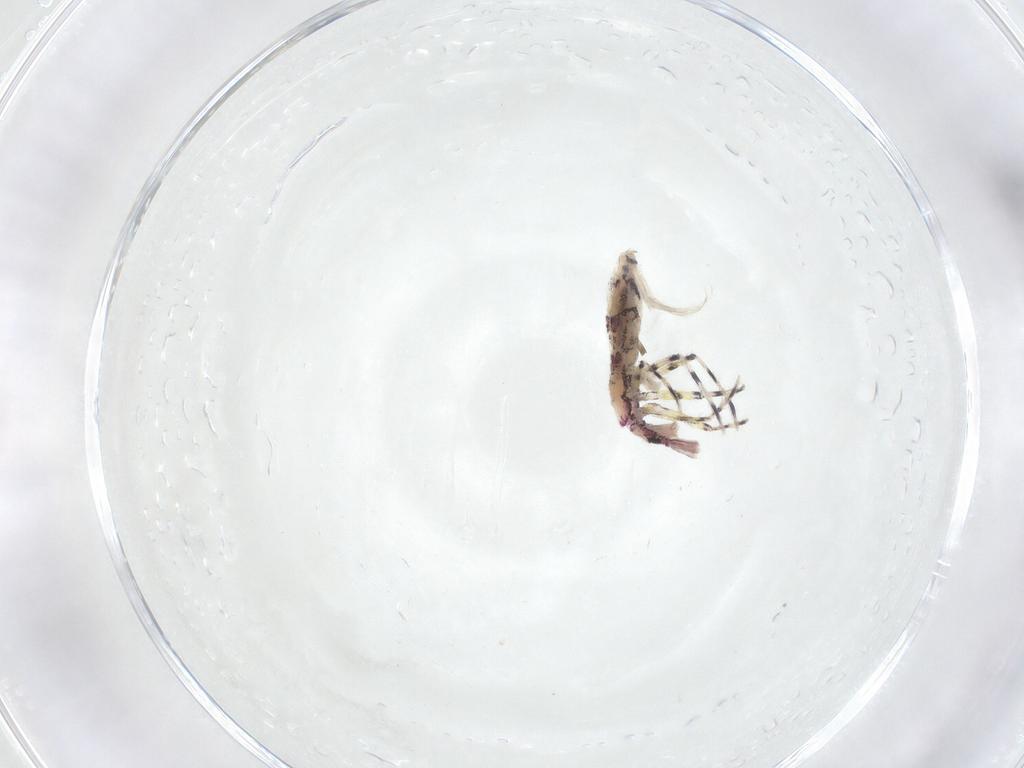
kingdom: Animalia
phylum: Arthropoda
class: Collembola
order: Entomobryomorpha
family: Entomobryidae
